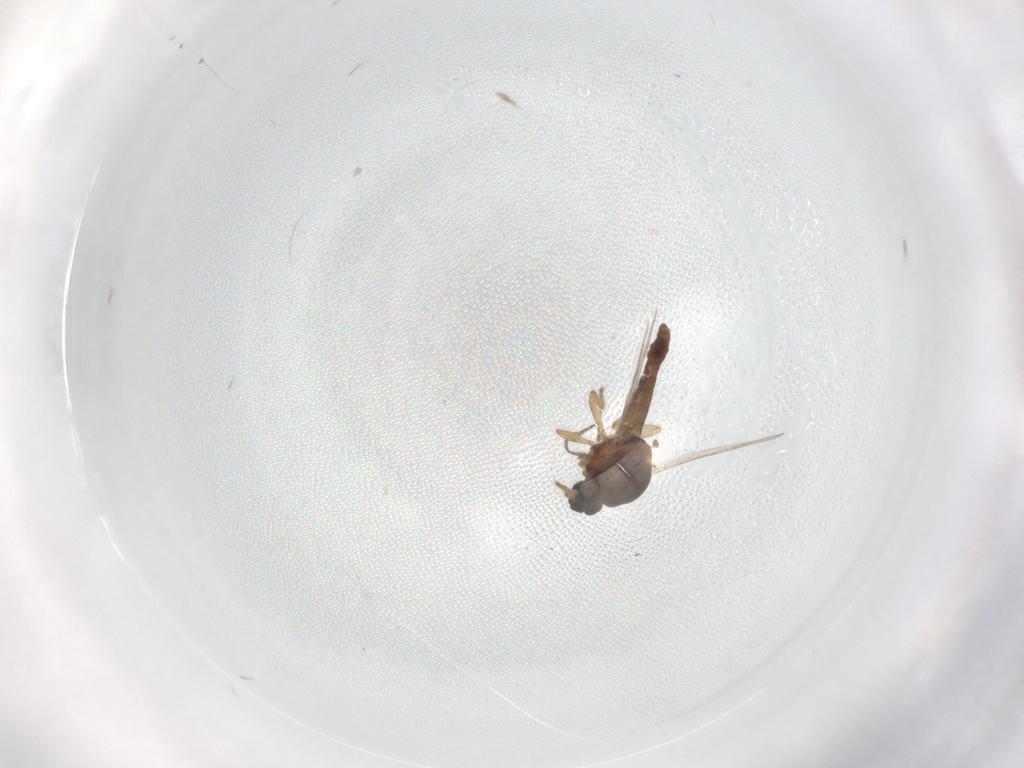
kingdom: Animalia
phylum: Arthropoda
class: Insecta
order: Diptera
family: Ceratopogonidae
